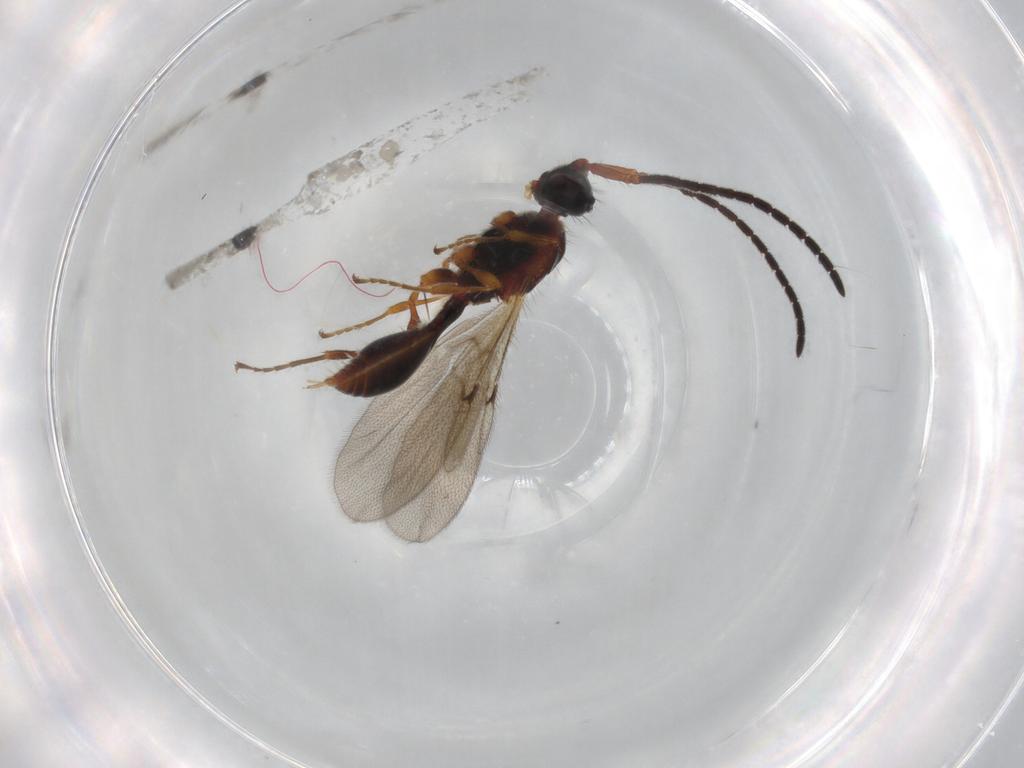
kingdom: Animalia
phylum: Arthropoda
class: Insecta
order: Hymenoptera
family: Diapriidae
